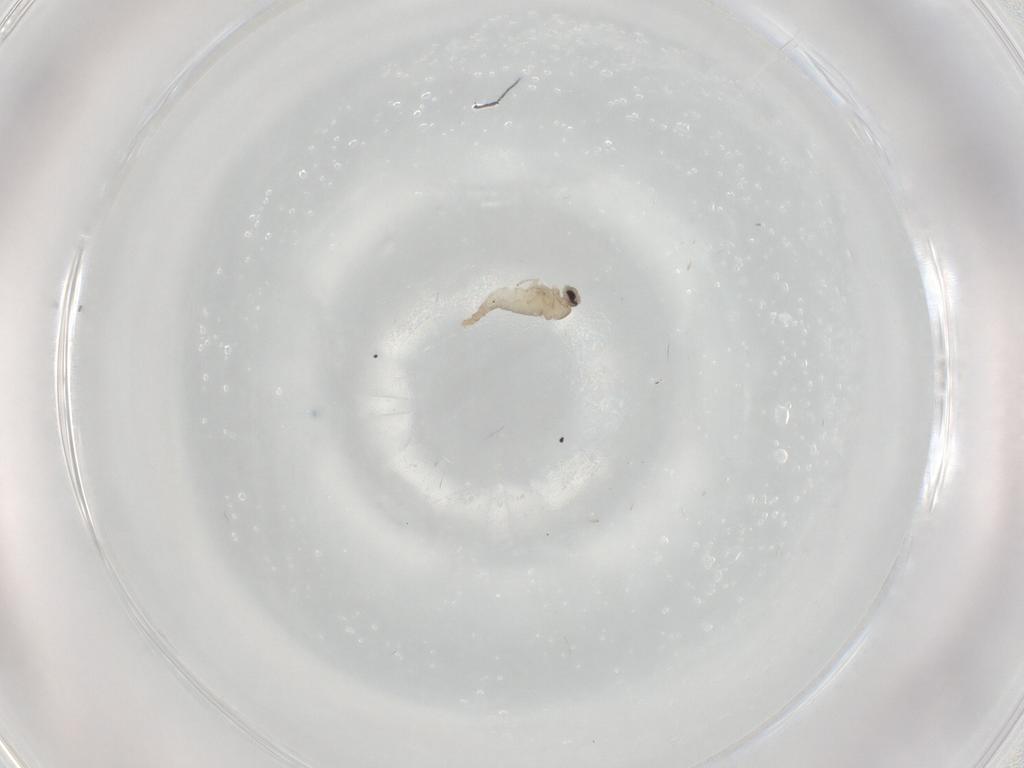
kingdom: Animalia
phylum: Arthropoda
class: Insecta
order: Diptera
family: Cecidomyiidae
